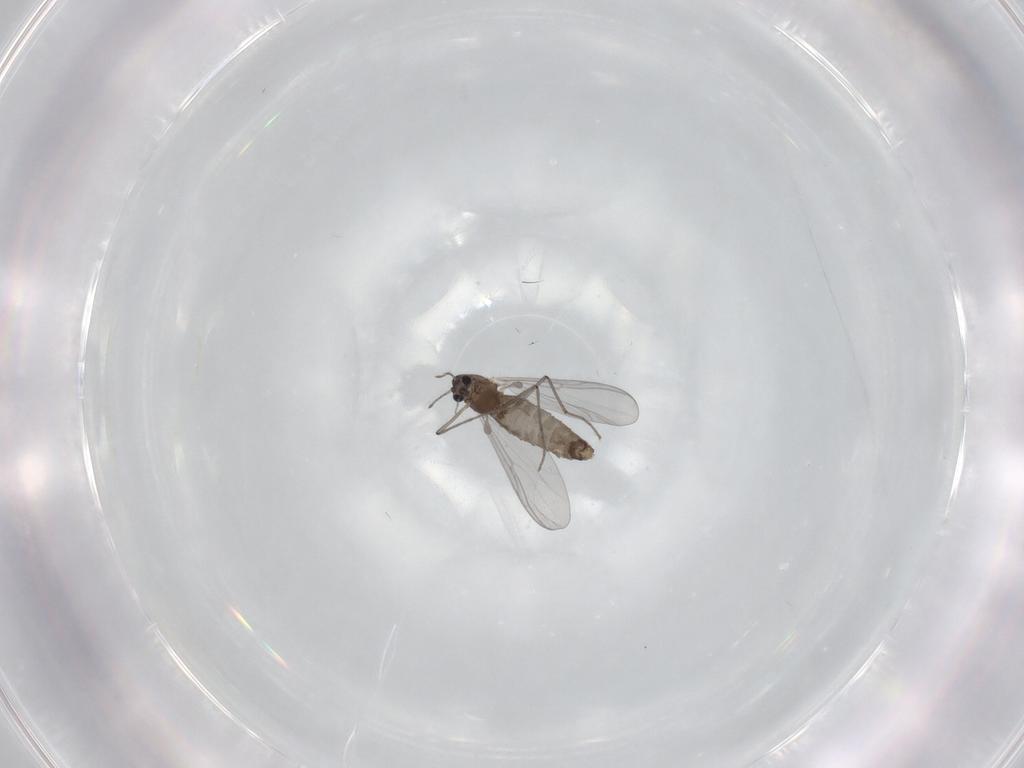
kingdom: Animalia
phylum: Arthropoda
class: Insecta
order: Diptera
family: Chironomidae
